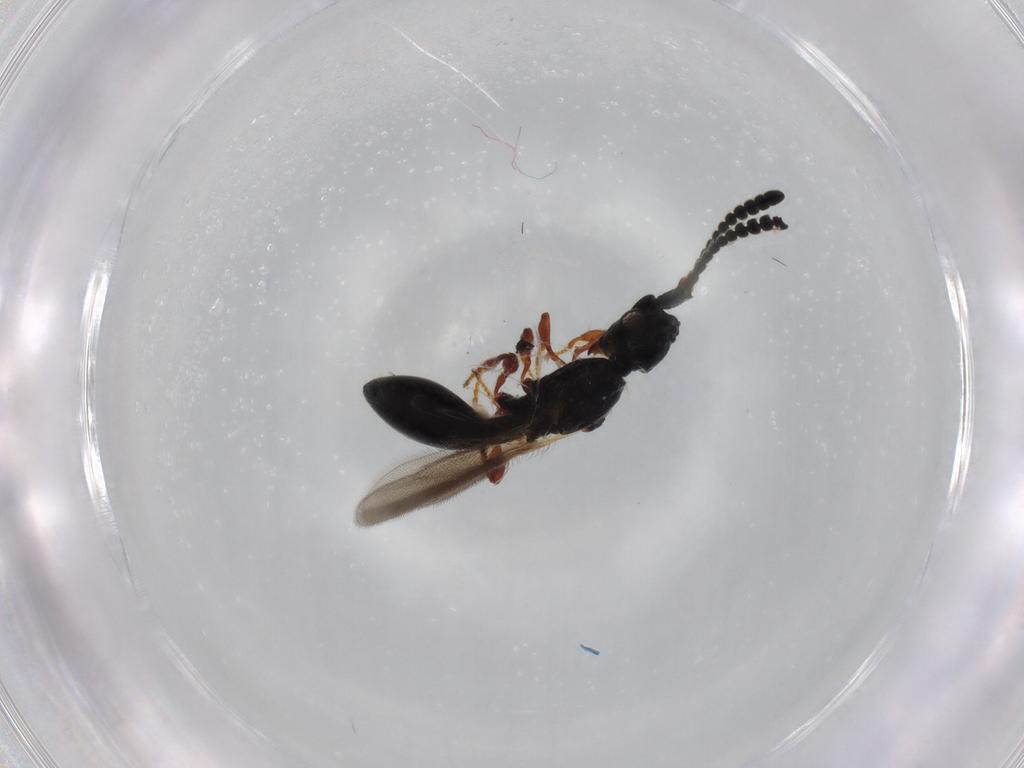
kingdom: Animalia
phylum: Arthropoda
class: Insecta
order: Hymenoptera
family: Diapriidae
